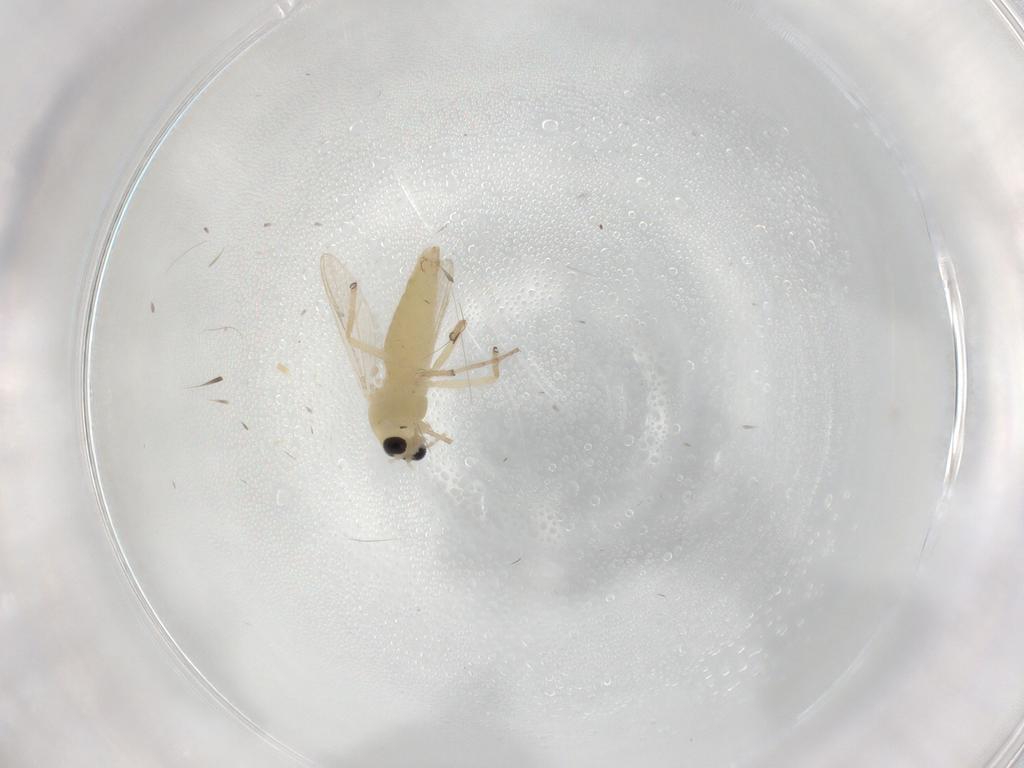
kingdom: Animalia
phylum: Arthropoda
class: Insecta
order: Diptera
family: Chironomidae
